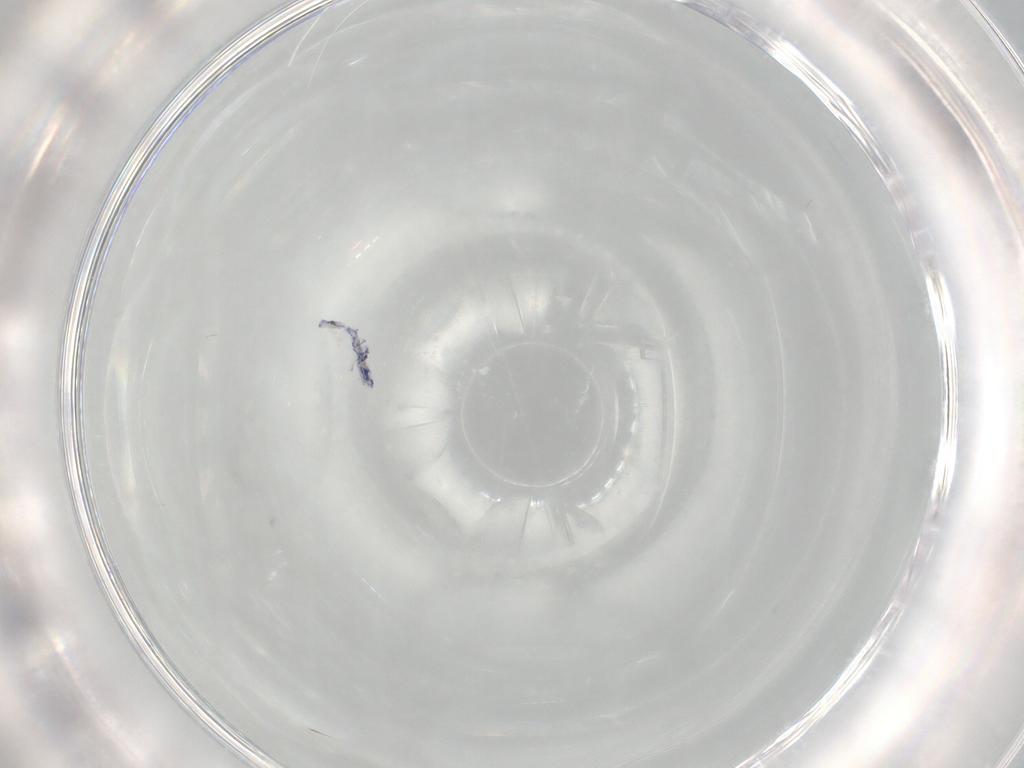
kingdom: Animalia
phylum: Arthropoda
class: Collembola
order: Entomobryomorpha
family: Entomobryidae
